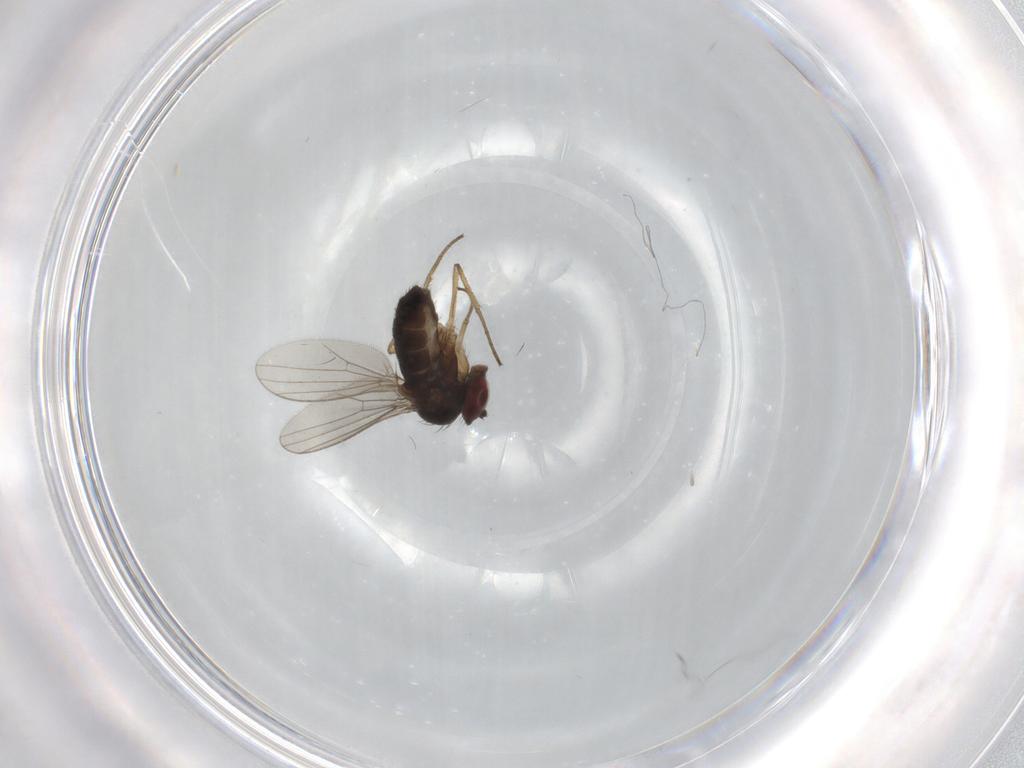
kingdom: Animalia
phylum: Arthropoda
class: Insecta
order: Diptera
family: Dolichopodidae
